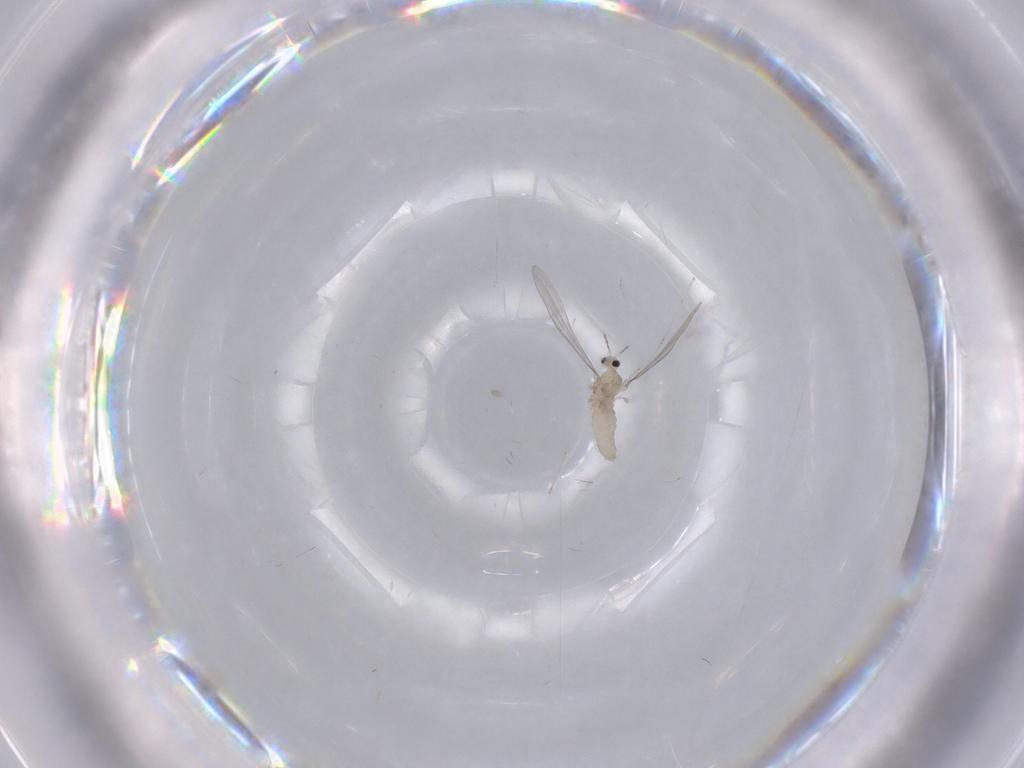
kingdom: Animalia
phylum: Arthropoda
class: Insecta
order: Diptera
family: Cecidomyiidae
